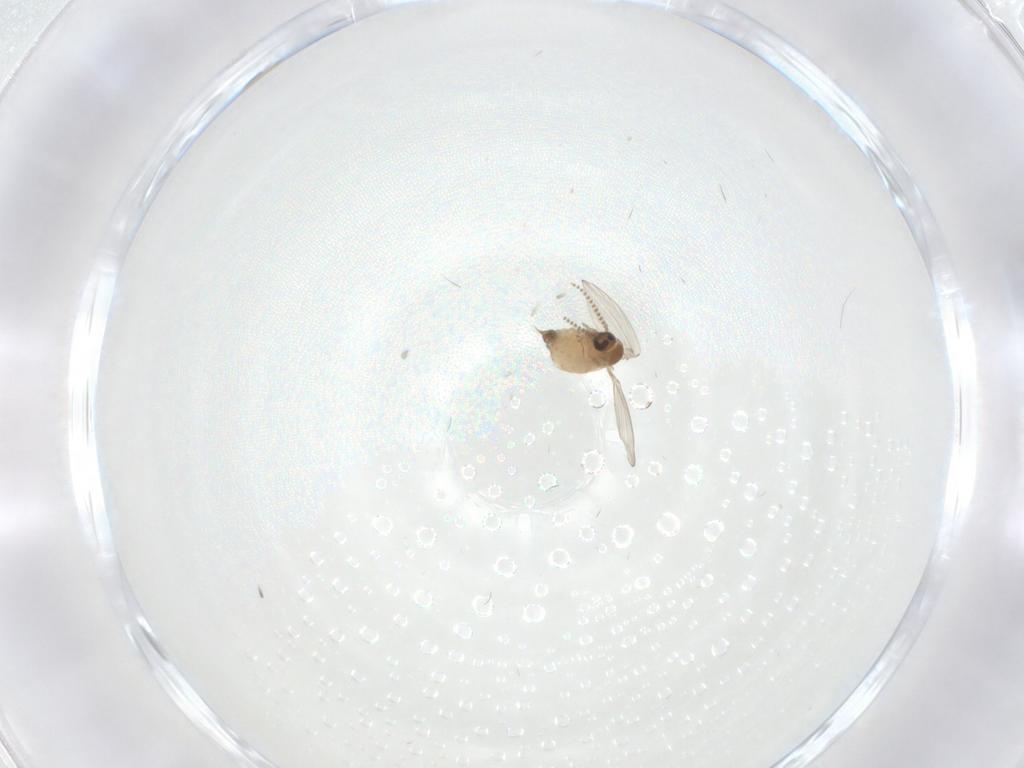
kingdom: Animalia
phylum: Arthropoda
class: Insecta
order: Diptera
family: Psychodidae
